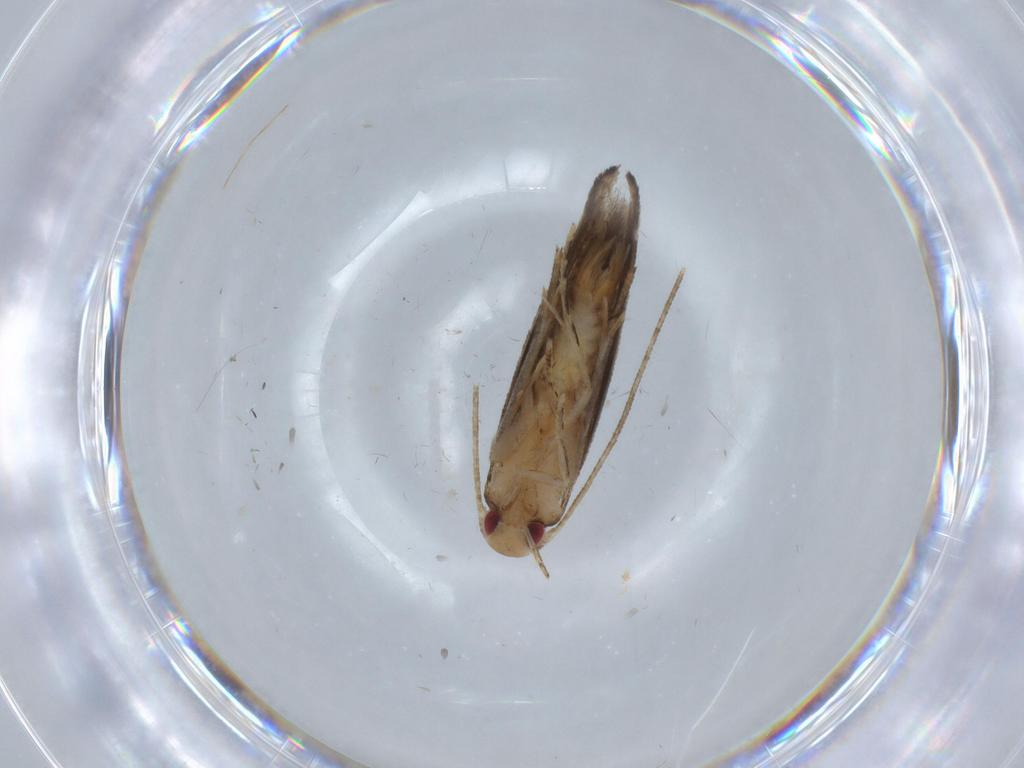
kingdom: Animalia
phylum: Arthropoda
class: Insecta
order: Lepidoptera
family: Momphidae
